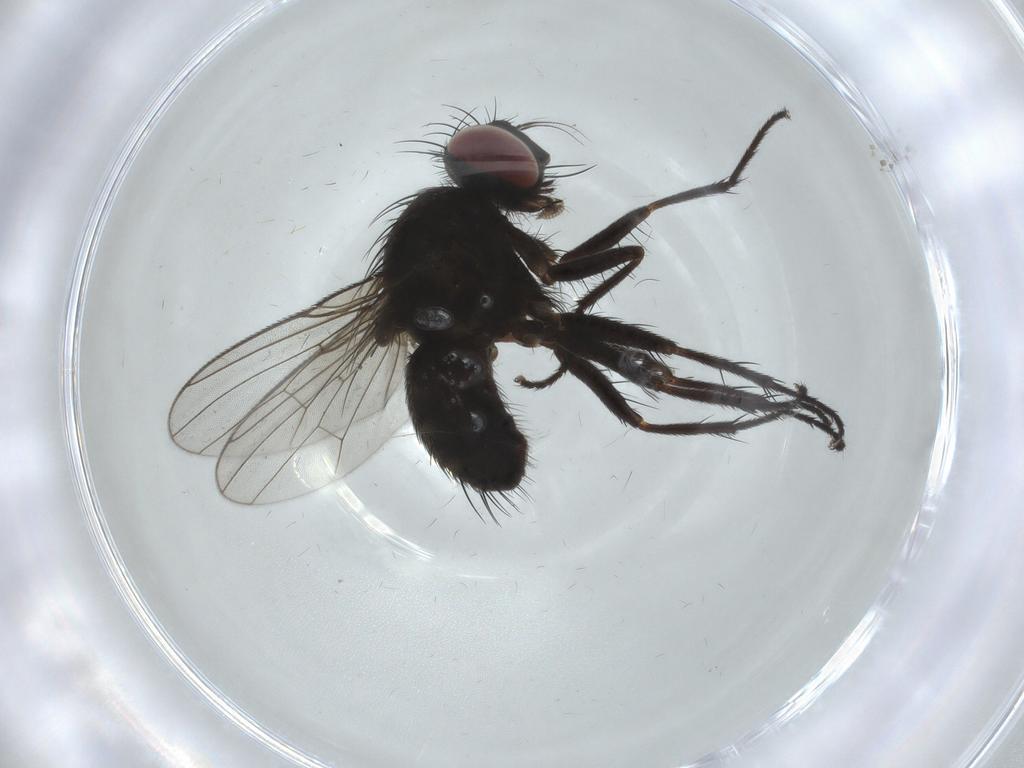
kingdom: Animalia
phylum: Arthropoda
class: Insecta
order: Diptera
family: Muscidae
